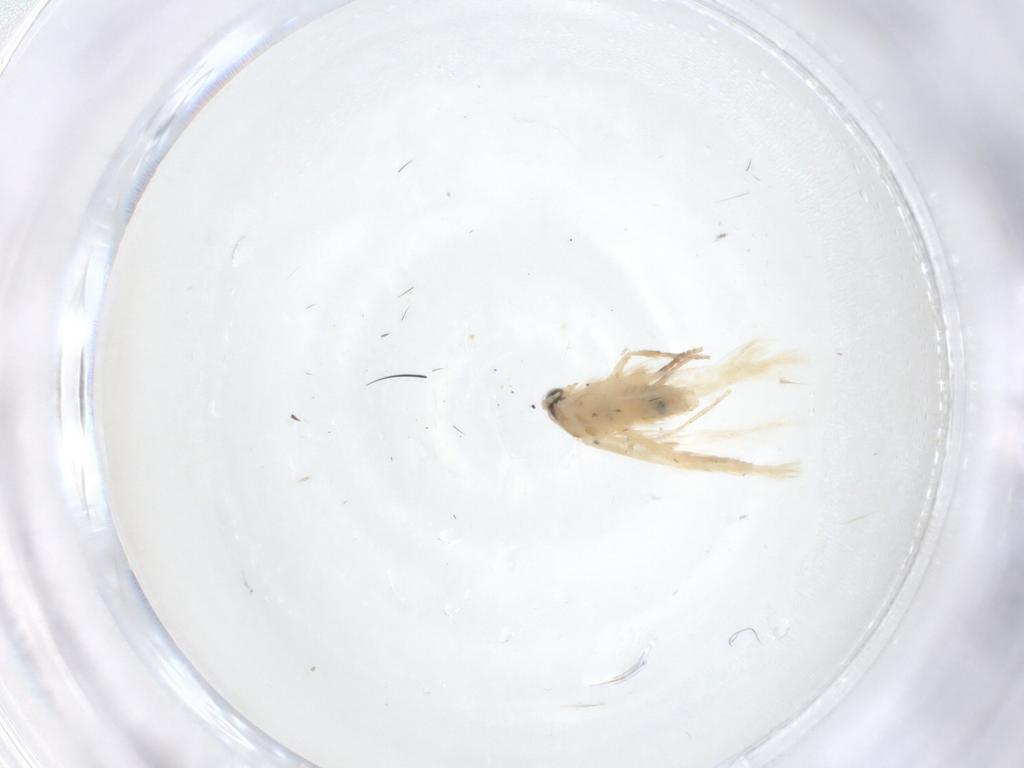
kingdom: Animalia
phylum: Arthropoda
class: Insecta
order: Lepidoptera
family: Nepticulidae
